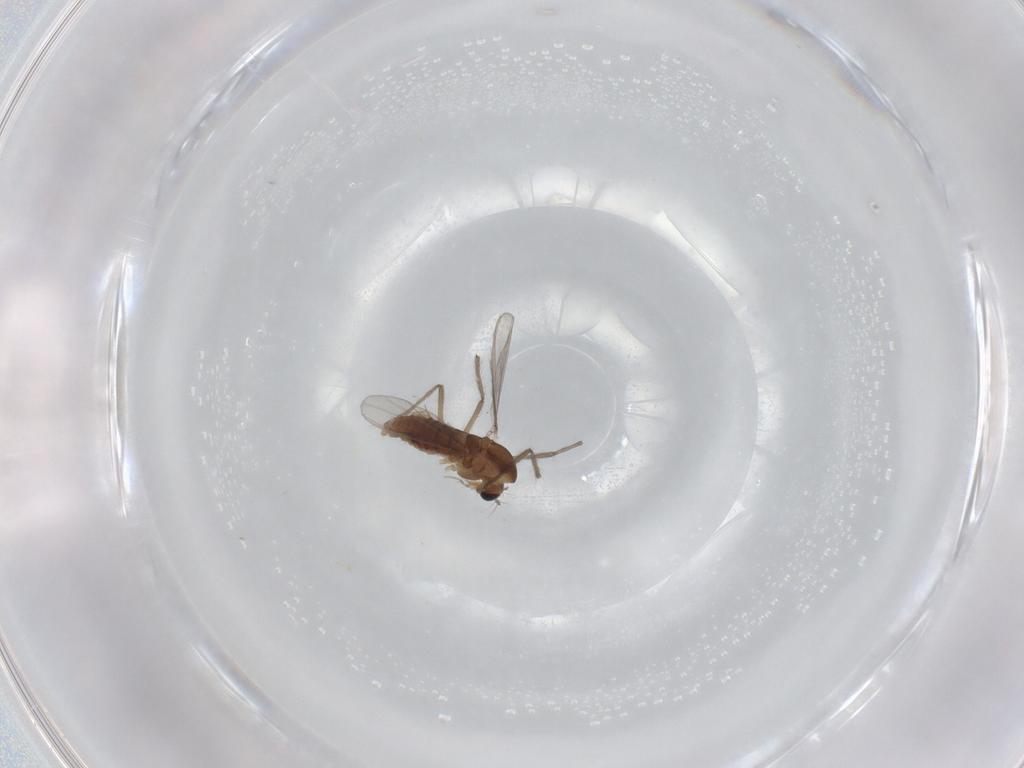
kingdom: Animalia
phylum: Arthropoda
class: Insecta
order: Diptera
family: Chironomidae
